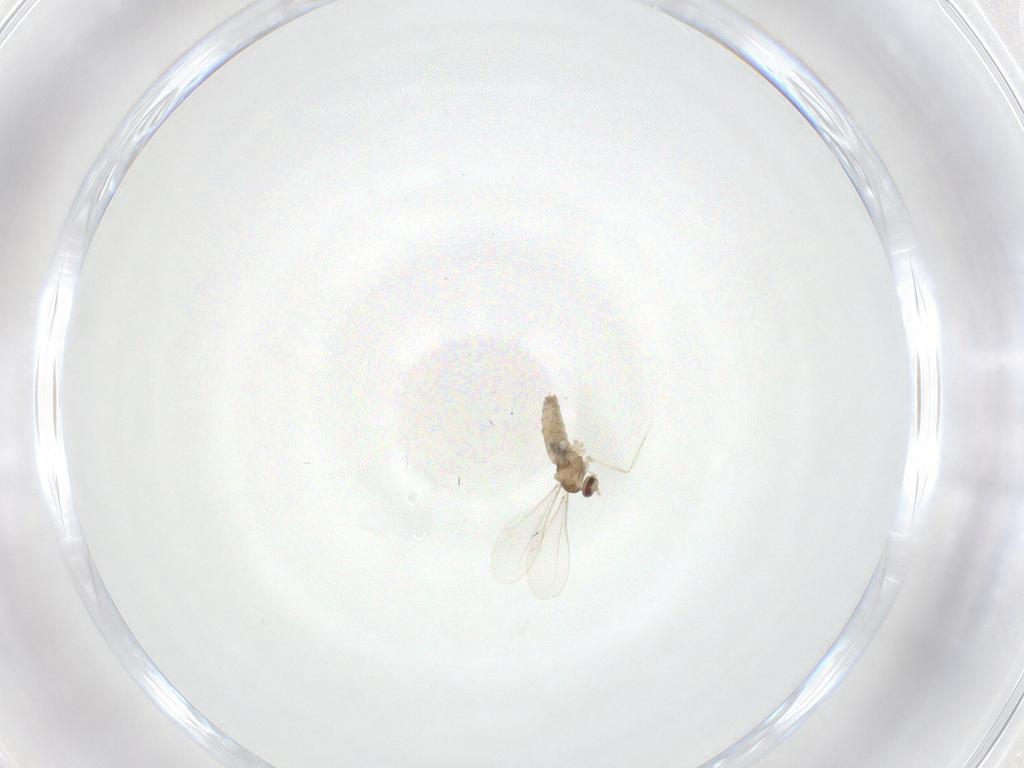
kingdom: Animalia
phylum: Arthropoda
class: Insecta
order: Diptera
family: Cecidomyiidae
